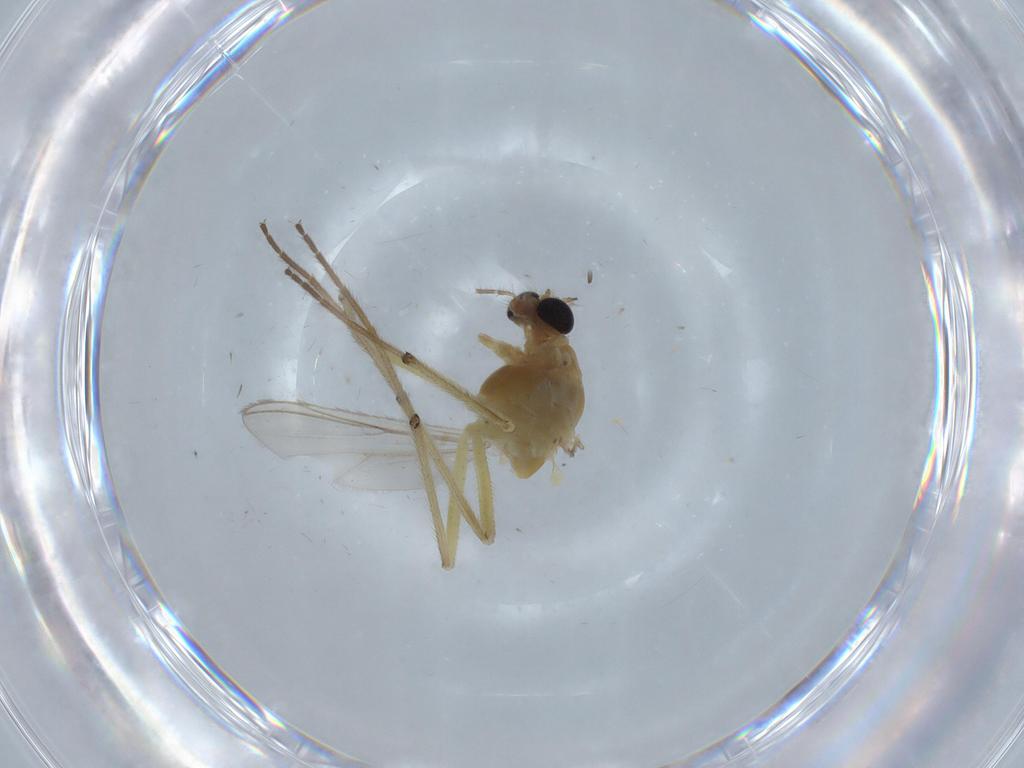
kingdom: Animalia
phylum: Arthropoda
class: Insecta
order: Diptera
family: Chironomidae
